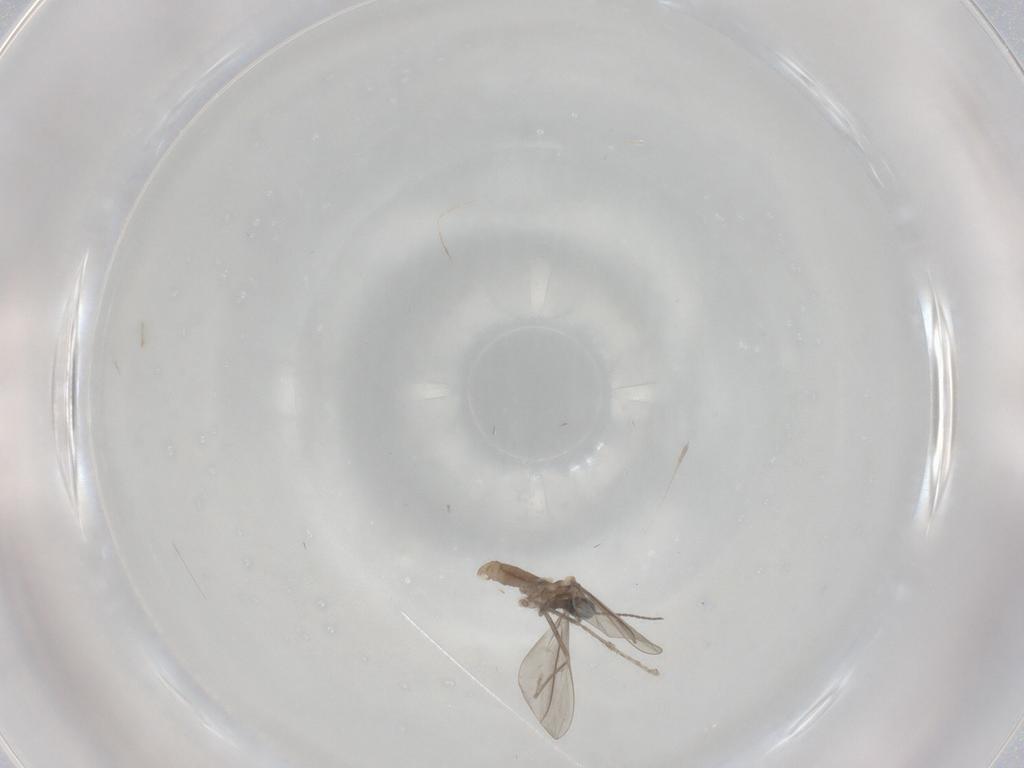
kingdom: Animalia
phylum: Arthropoda
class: Insecta
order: Diptera
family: Cecidomyiidae
